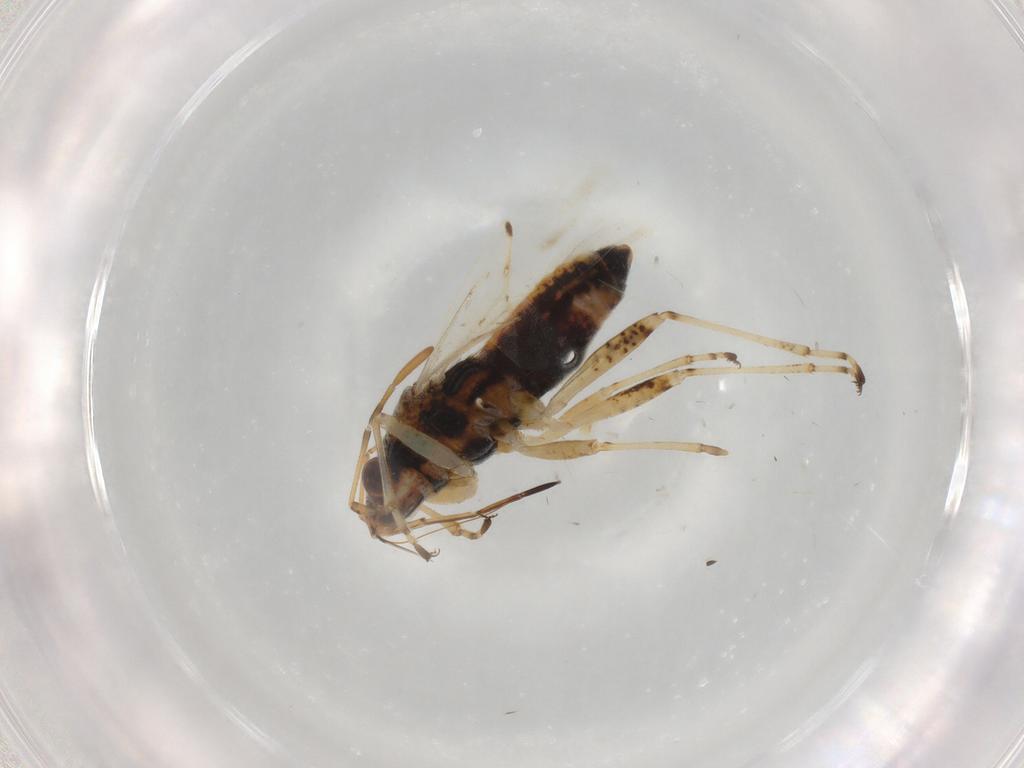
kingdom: Animalia
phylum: Arthropoda
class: Insecta
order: Hemiptera
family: Lygaeidae
